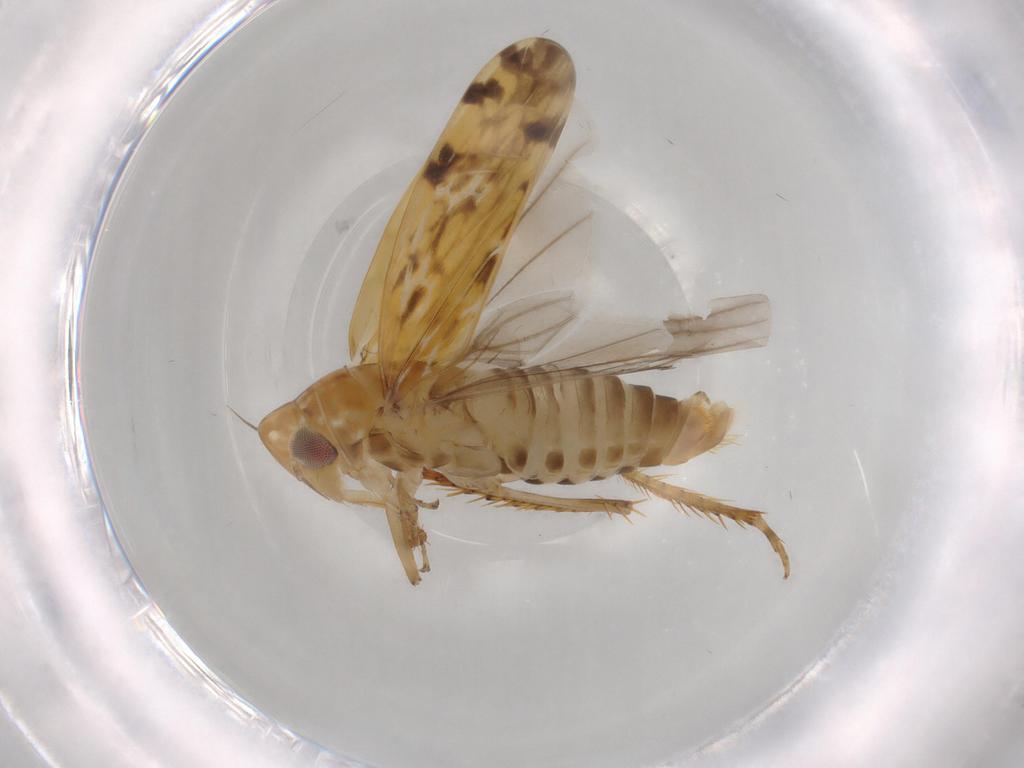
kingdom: Animalia
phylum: Arthropoda
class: Insecta
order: Hemiptera
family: Cicadellidae
